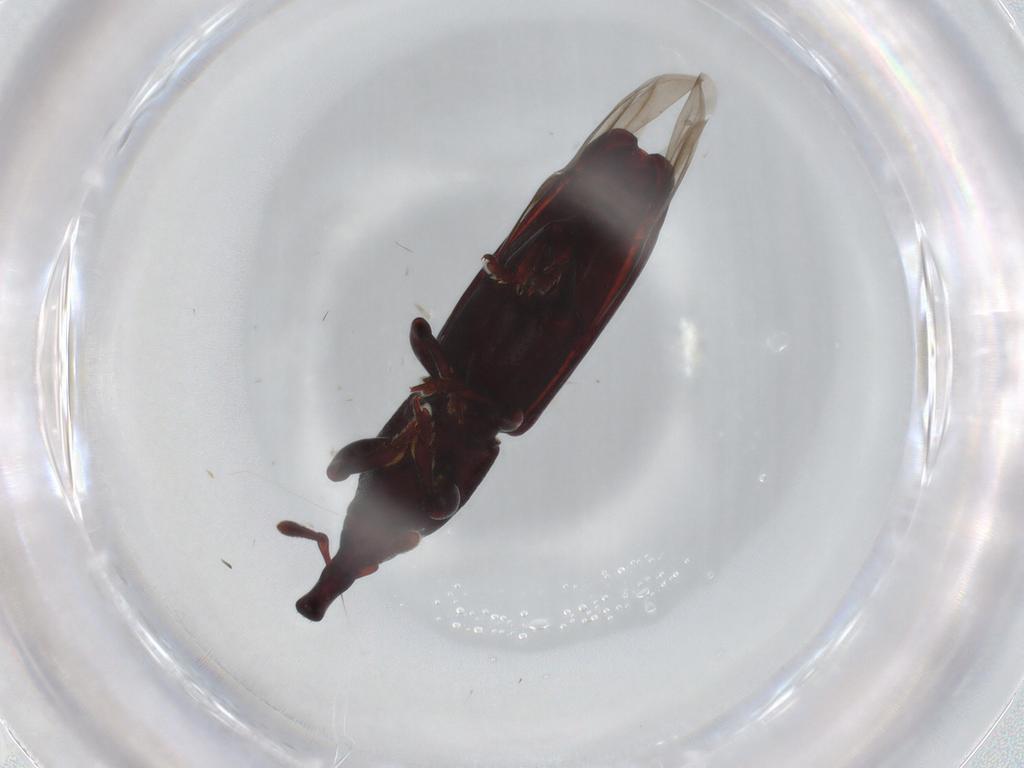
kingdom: Animalia
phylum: Arthropoda
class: Insecta
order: Coleoptera
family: Curculionidae
